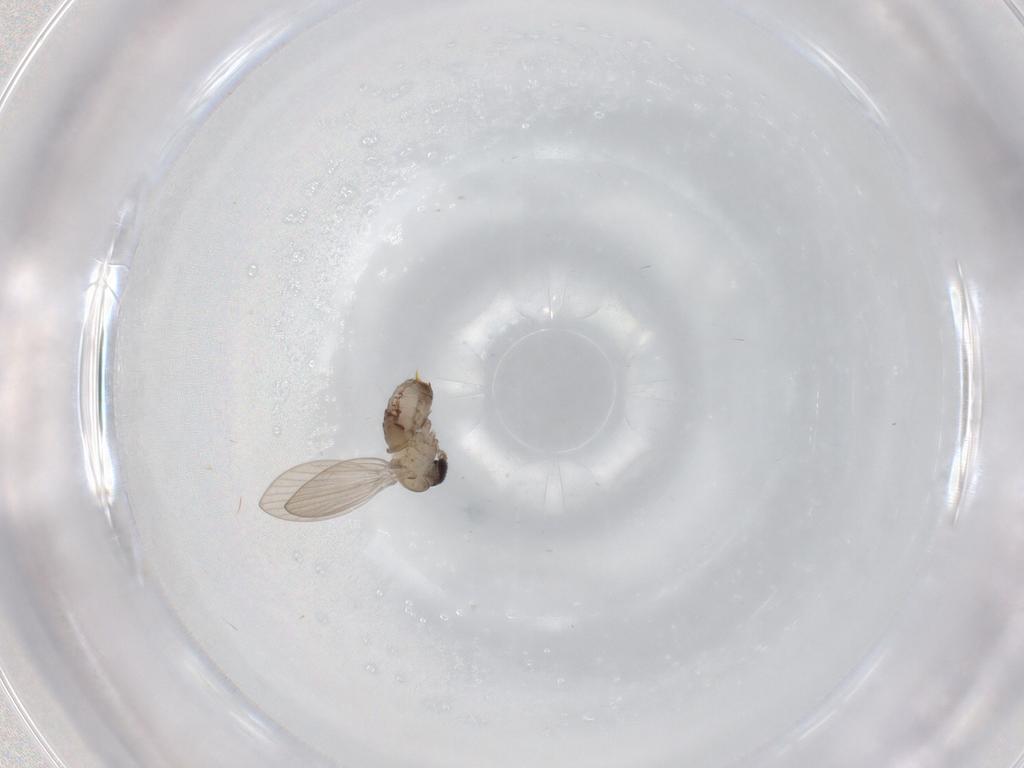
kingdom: Animalia
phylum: Arthropoda
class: Insecta
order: Diptera
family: Psychodidae
